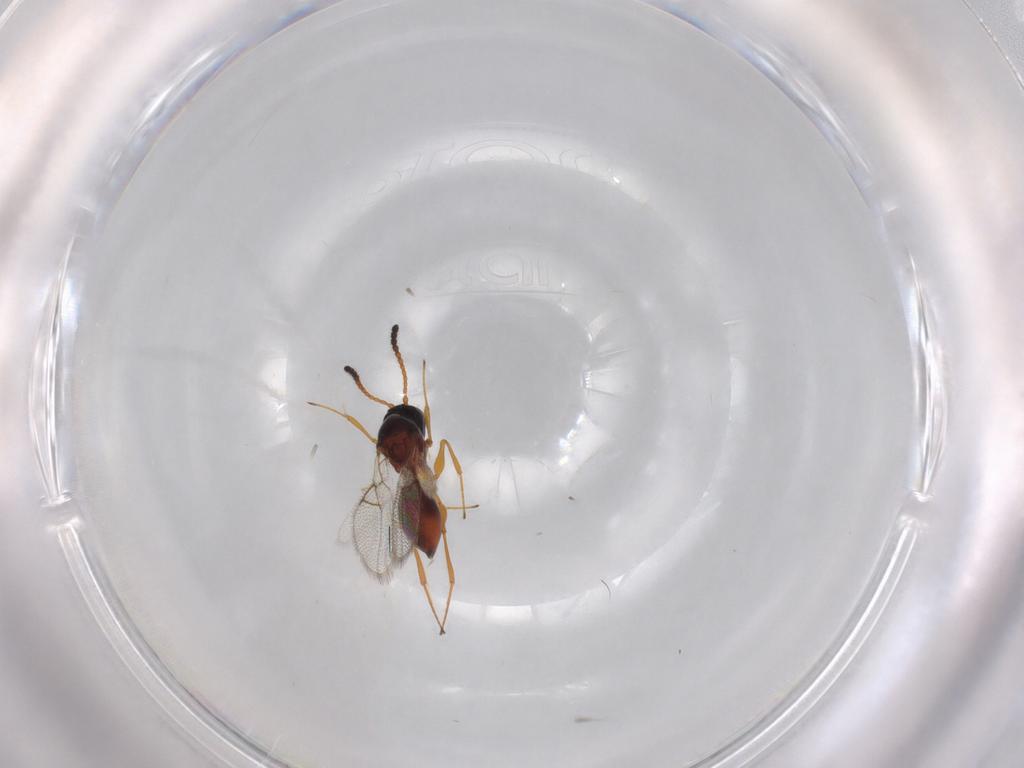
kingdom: Animalia
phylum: Arthropoda
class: Insecta
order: Hymenoptera
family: Figitidae
